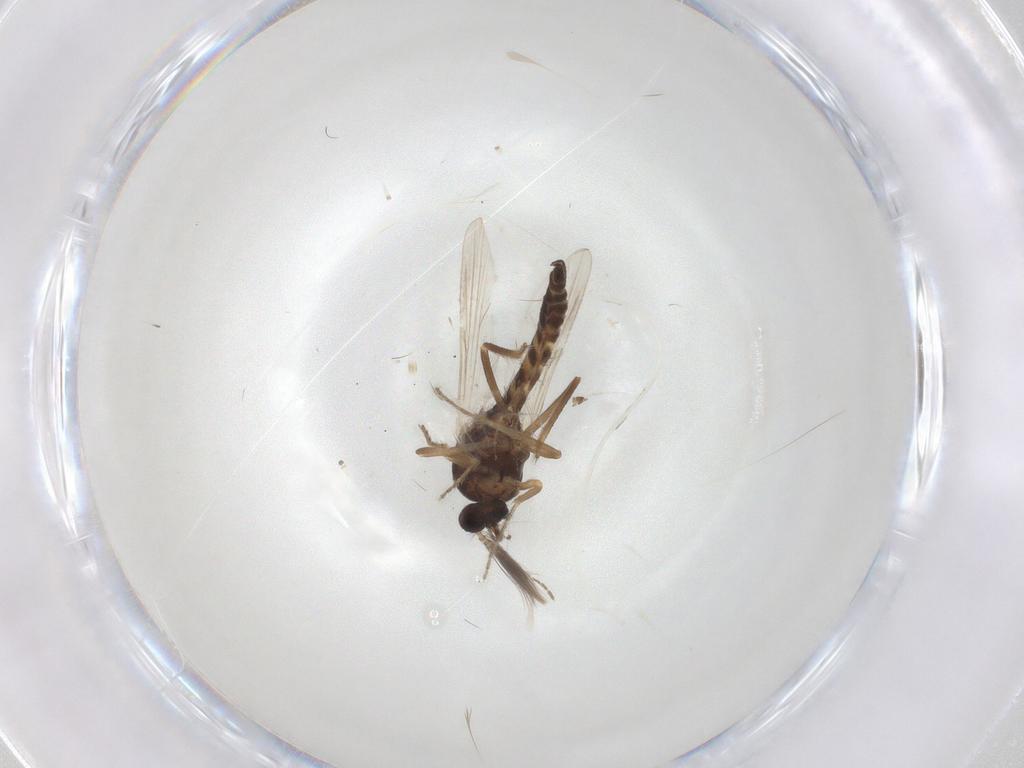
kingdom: Animalia
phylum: Arthropoda
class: Insecta
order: Diptera
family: Ceratopogonidae
